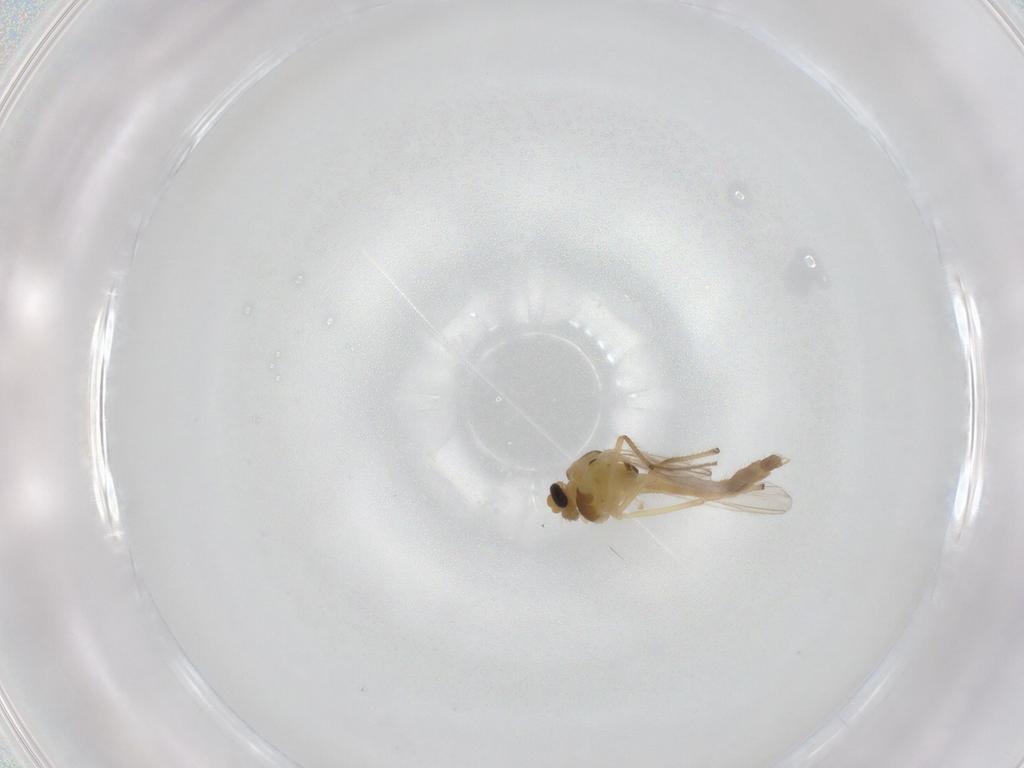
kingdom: Animalia
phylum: Arthropoda
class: Insecta
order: Diptera
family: Chironomidae
